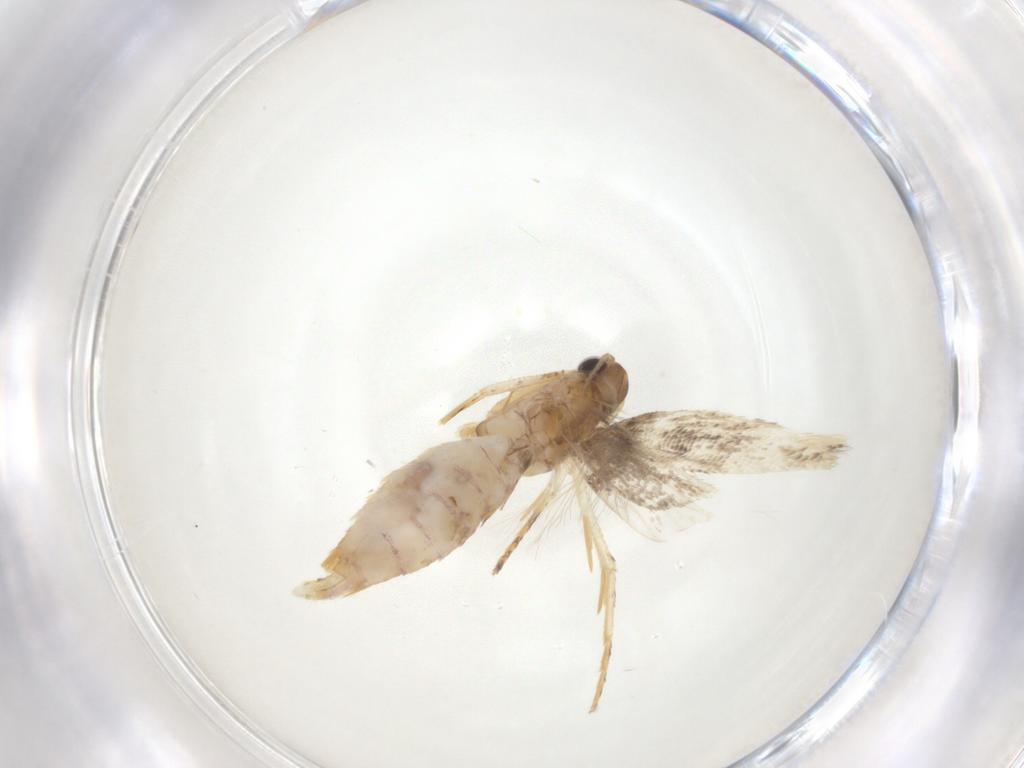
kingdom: Animalia
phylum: Arthropoda
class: Insecta
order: Lepidoptera
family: Gelechiidae
